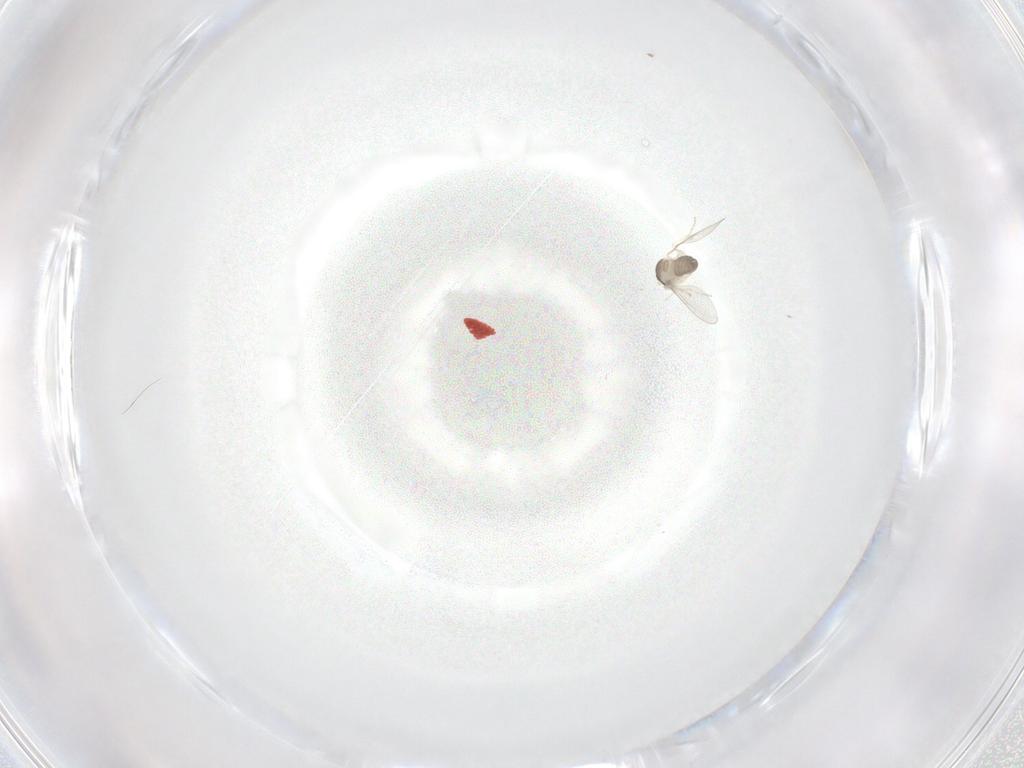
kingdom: Animalia
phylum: Arthropoda
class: Insecta
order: Diptera
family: Cecidomyiidae
